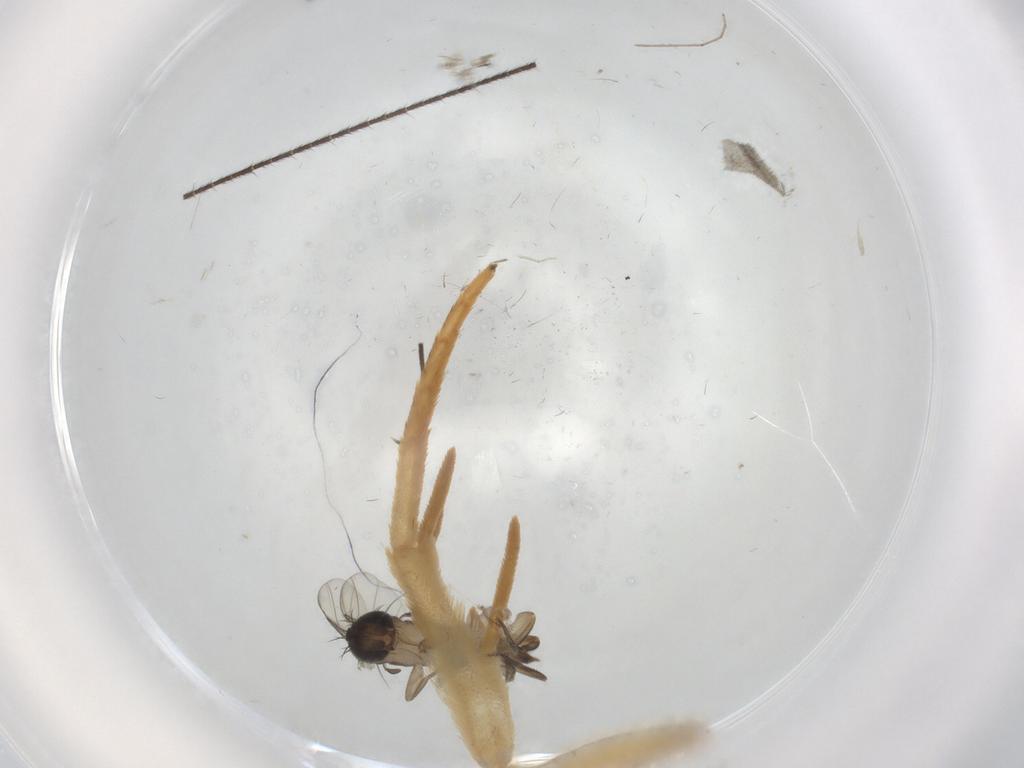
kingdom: Animalia
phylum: Arthropoda
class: Insecta
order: Diptera
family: Phoridae
